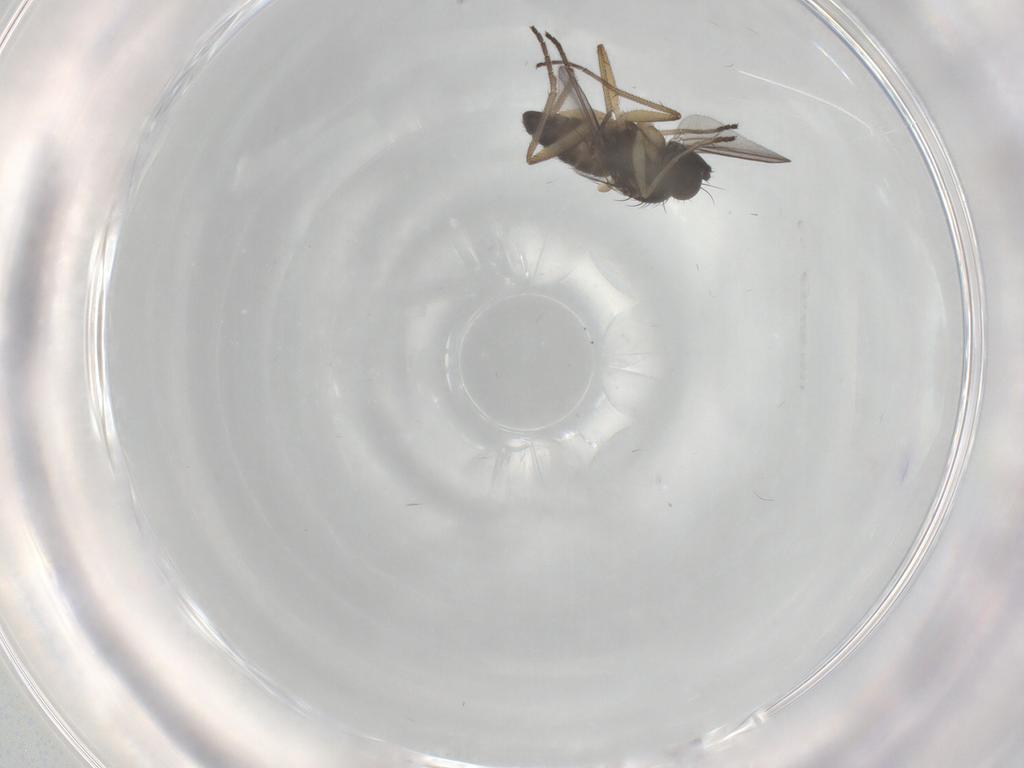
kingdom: Animalia
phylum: Arthropoda
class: Insecta
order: Diptera
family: Dolichopodidae
